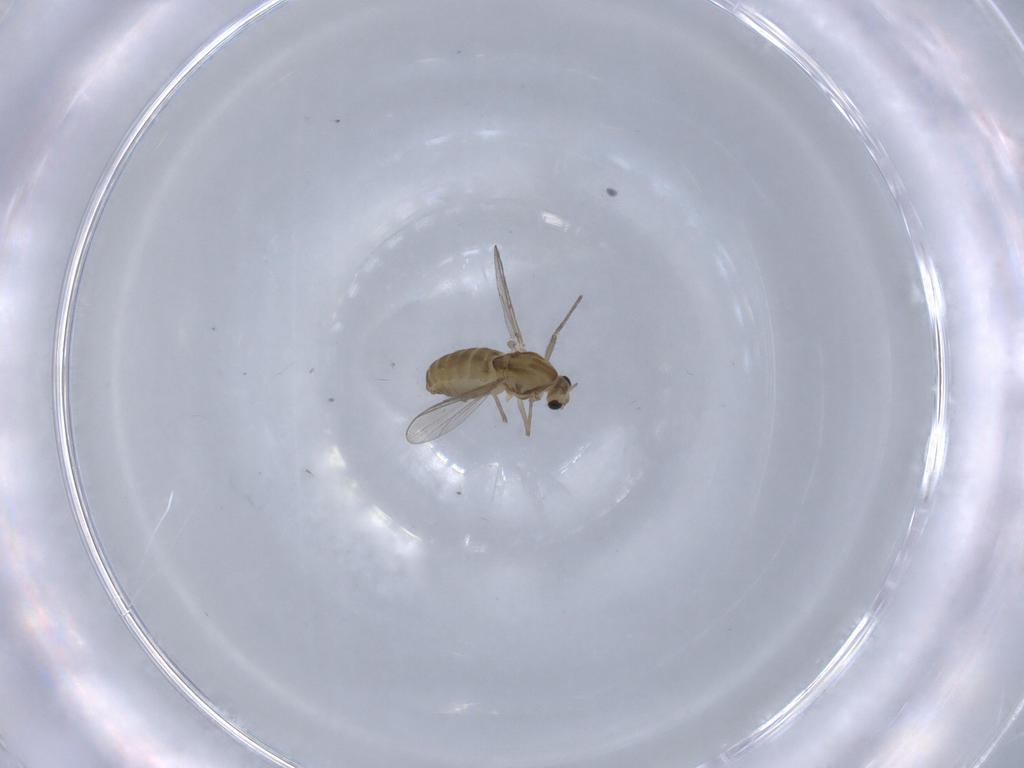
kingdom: Animalia
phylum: Arthropoda
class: Insecta
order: Diptera
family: Chironomidae
